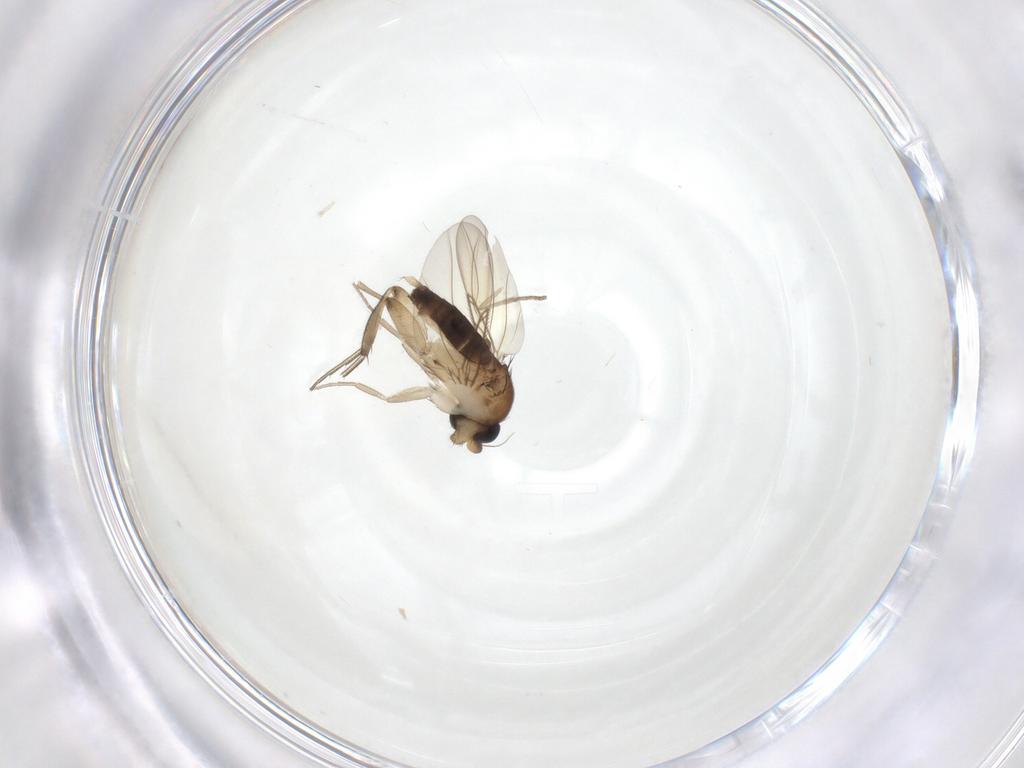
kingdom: Animalia
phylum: Arthropoda
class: Insecta
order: Diptera
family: Phoridae
